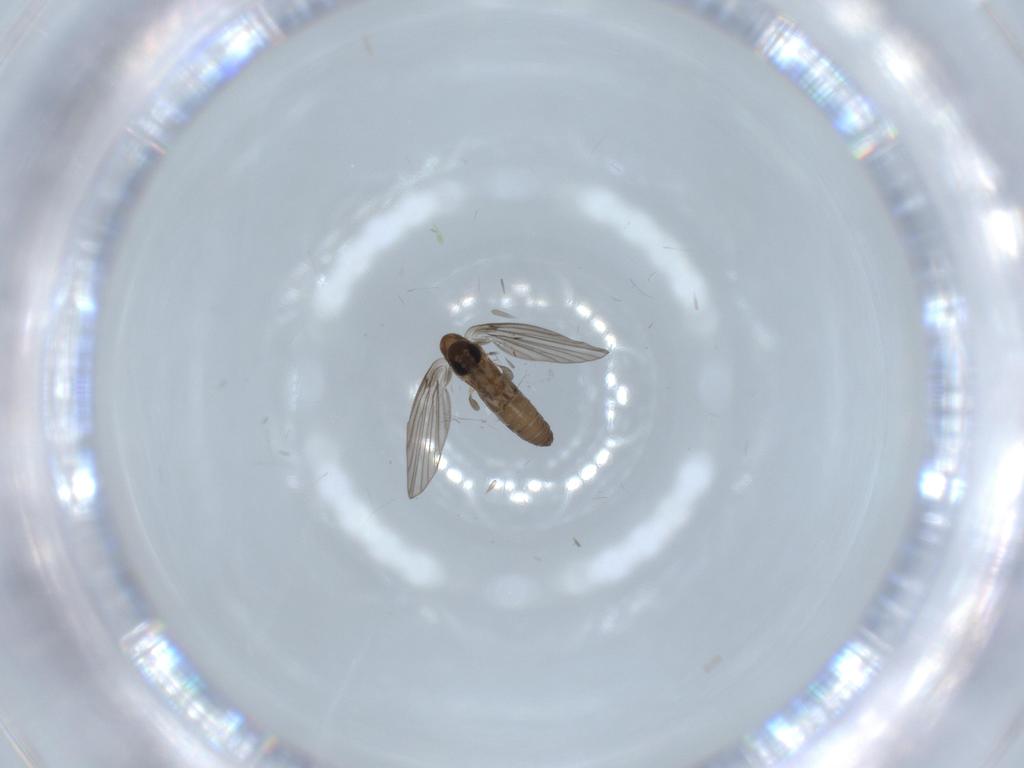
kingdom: Animalia
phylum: Arthropoda
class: Insecta
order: Diptera
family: Psychodidae
